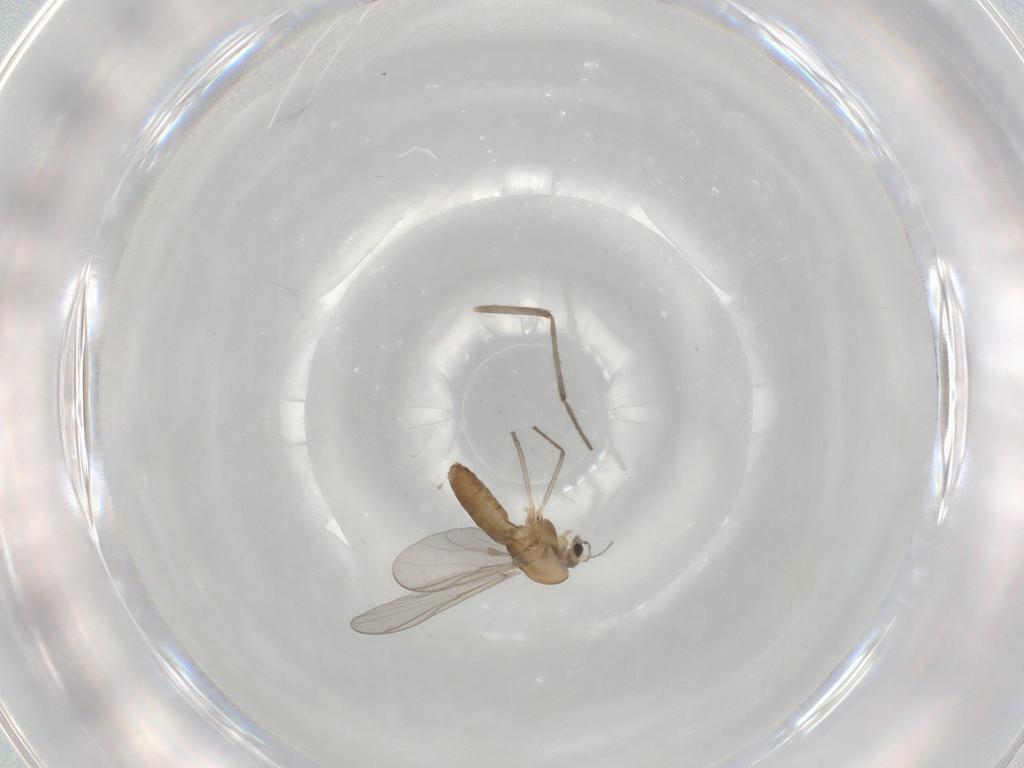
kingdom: Animalia
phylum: Arthropoda
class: Insecta
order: Diptera
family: Chironomidae
